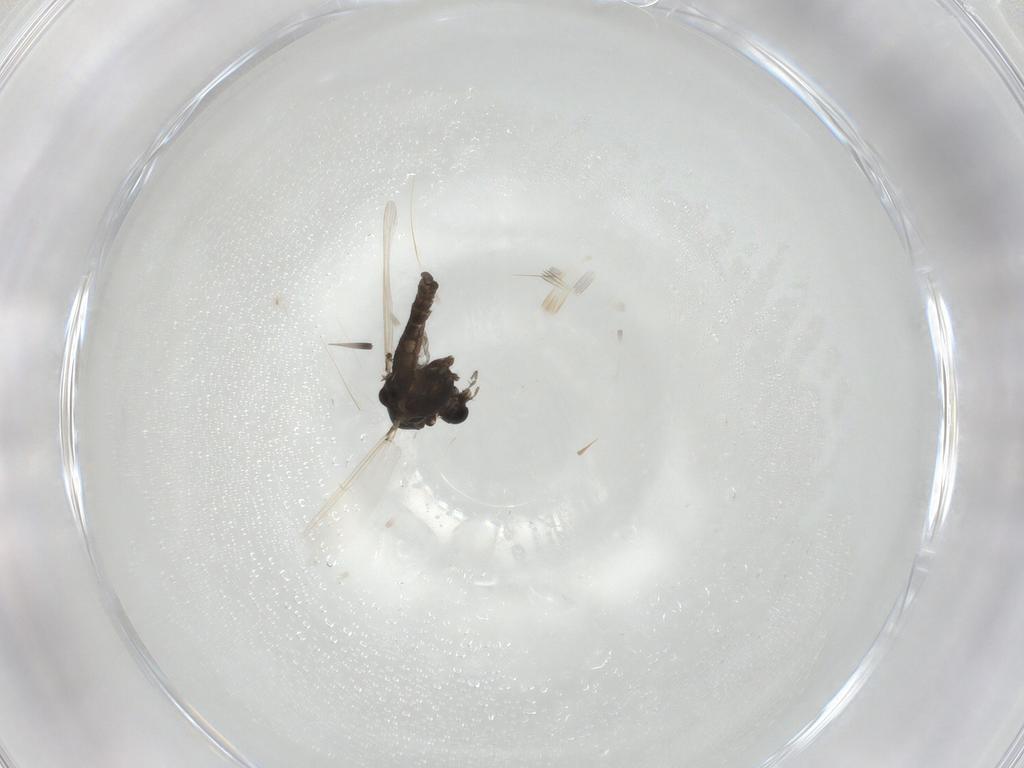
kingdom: Animalia
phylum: Arthropoda
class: Insecta
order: Diptera
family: Chironomidae
